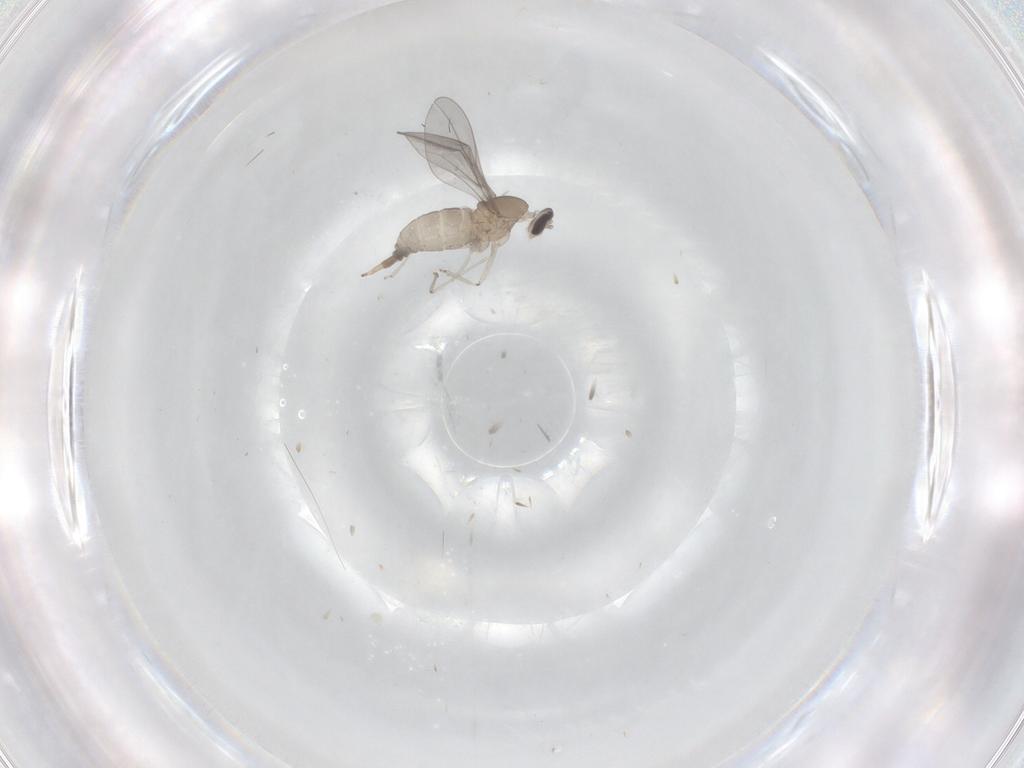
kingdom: Animalia
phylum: Arthropoda
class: Insecta
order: Diptera
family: Cecidomyiidae
